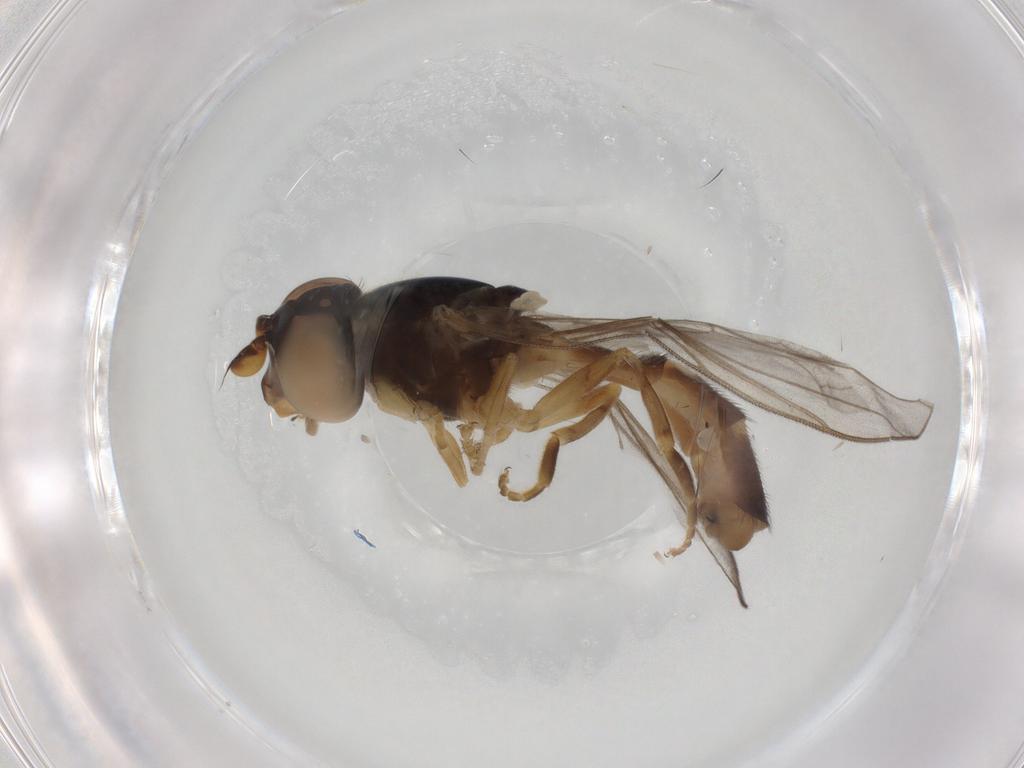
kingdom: Animalia
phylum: Arthropoda
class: Insecta
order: Diptera
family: Syrphidae
